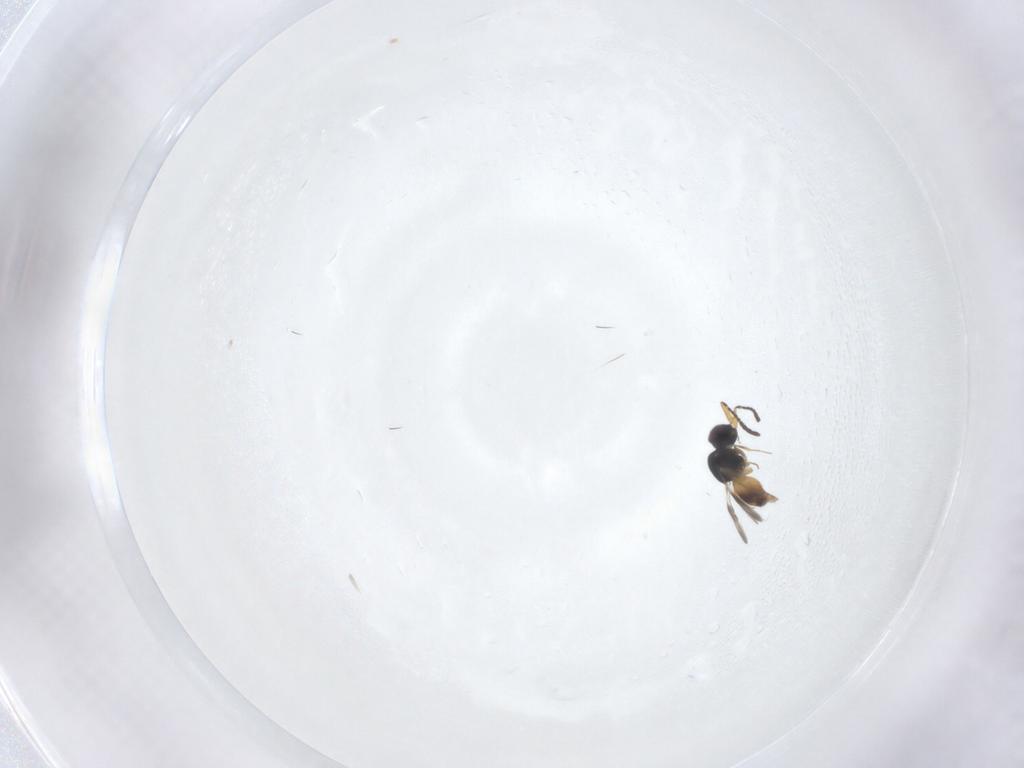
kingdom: Animalia
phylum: Arthropoda
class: Insecta
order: Hymenoptera
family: Ceraphronidae
